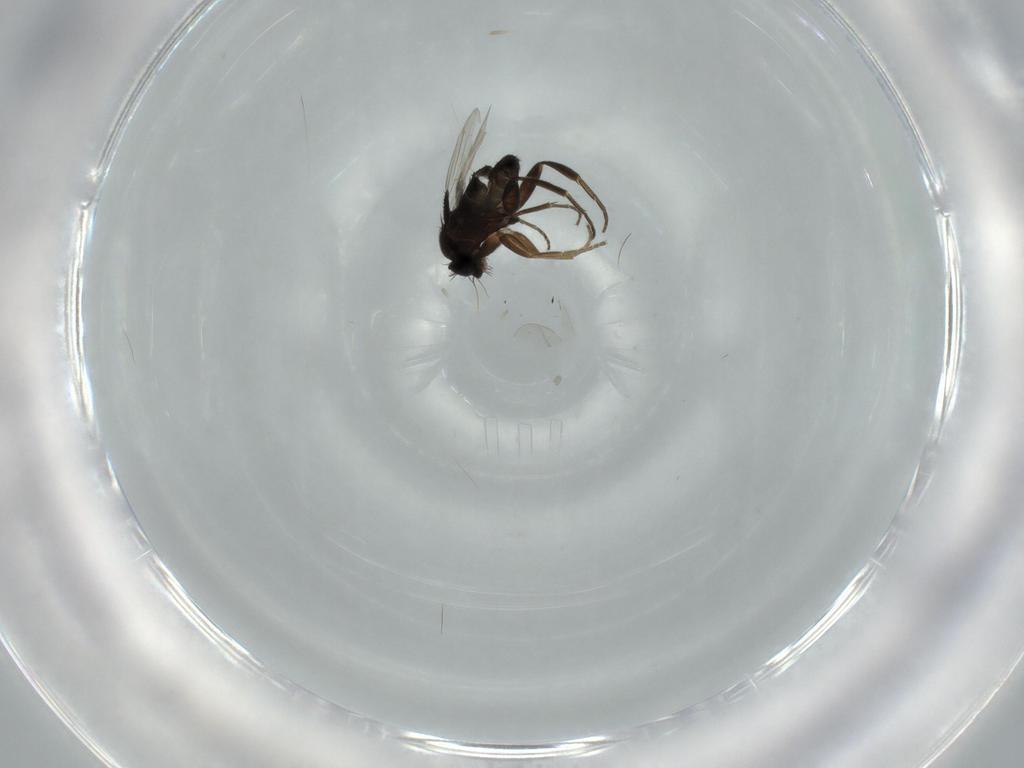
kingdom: Animalia
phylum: Arthropoda
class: Insecta
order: Diptera
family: Phoridae
